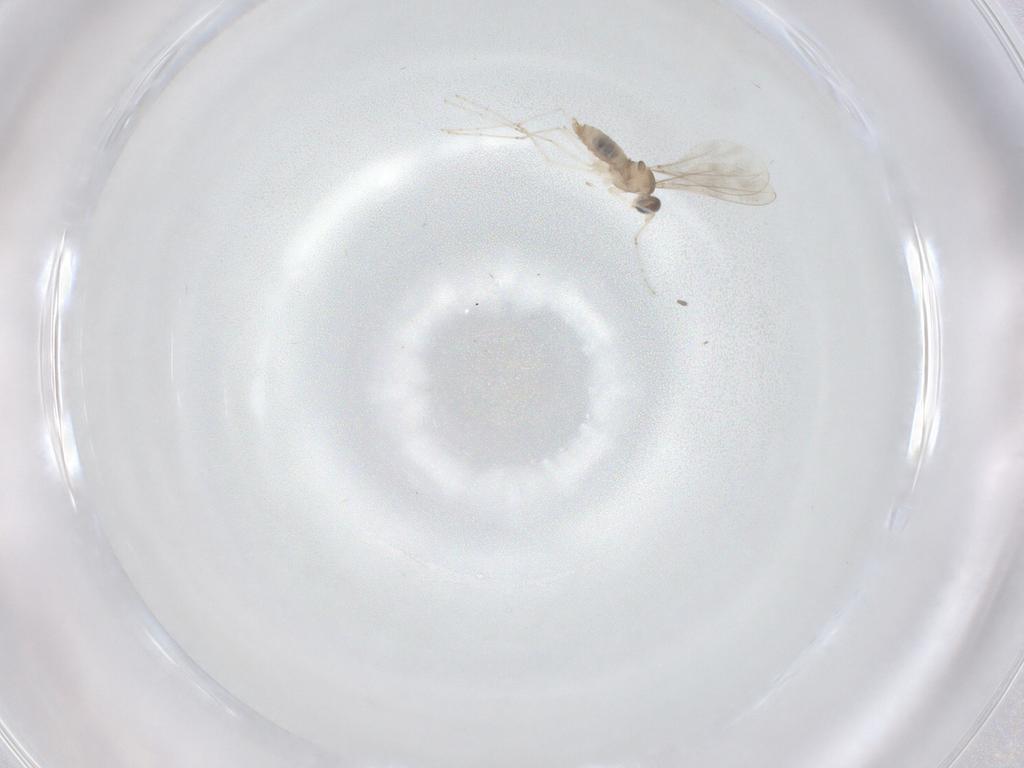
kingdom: Animalia
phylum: Arthropoda
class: Insecta
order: Diptera
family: Cecidomyiidae
